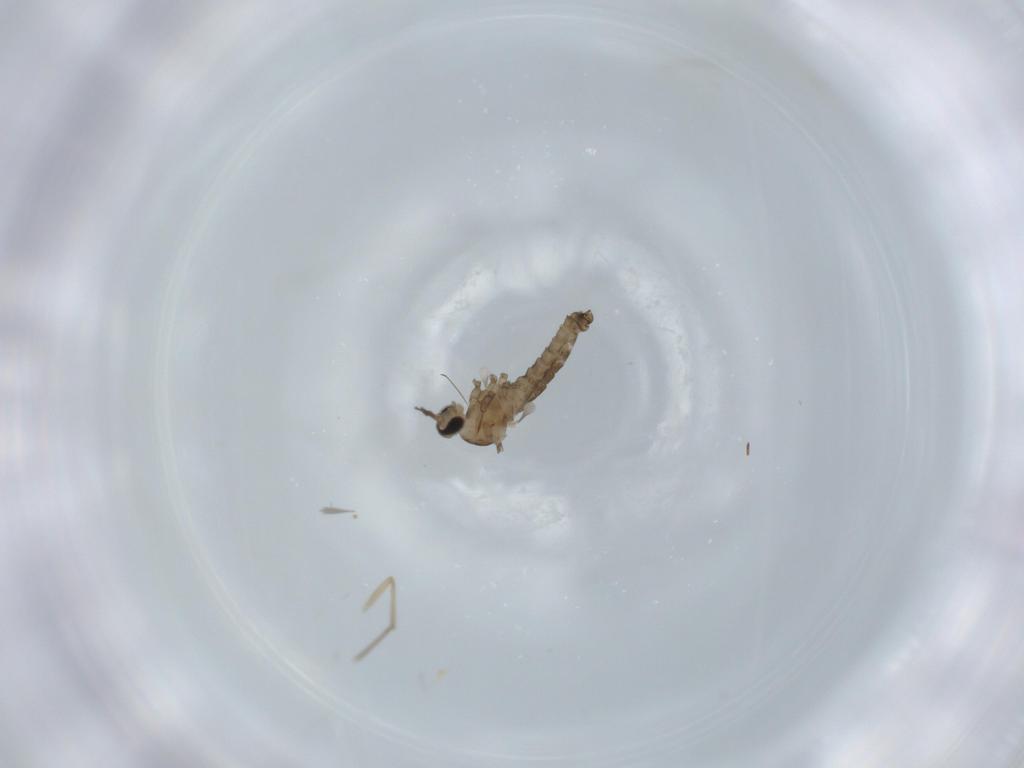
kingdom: Animalia
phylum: Arthropoda
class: Insecta
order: Diptera
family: Cecidomyiidae
